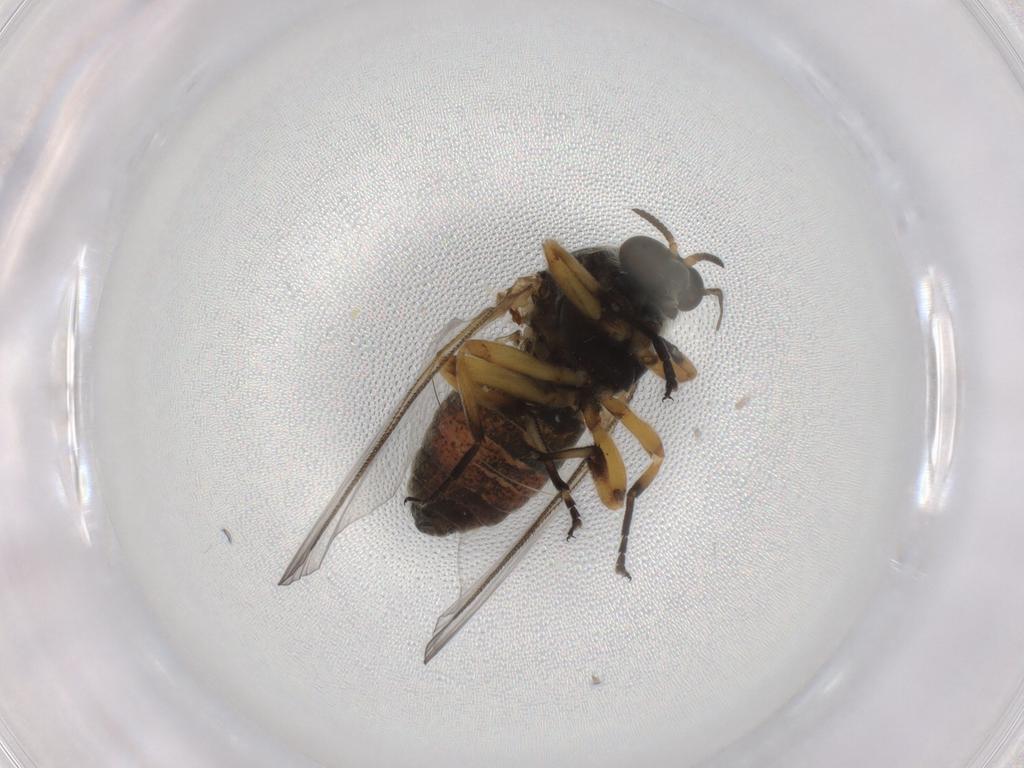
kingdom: Animalia
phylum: Arthropoda
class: Insecta
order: Diptera
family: Ceratopogonidae
